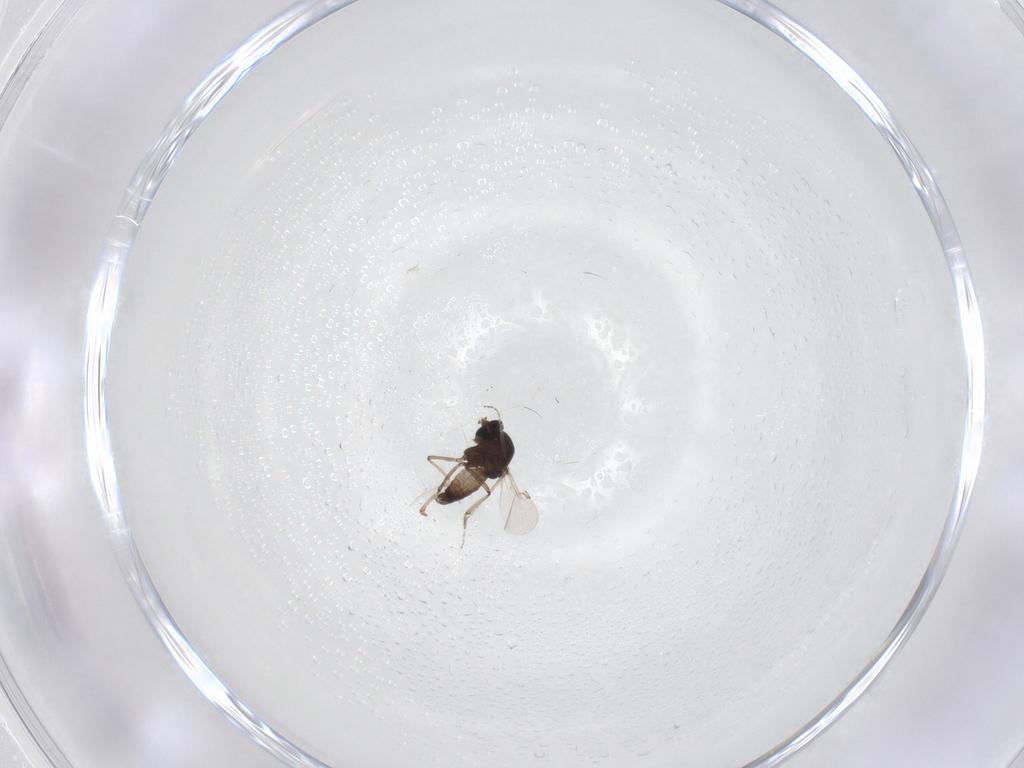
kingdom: Animalia
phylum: Arthropoda
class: Insecta
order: Diptera
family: Ceratopogonidae
